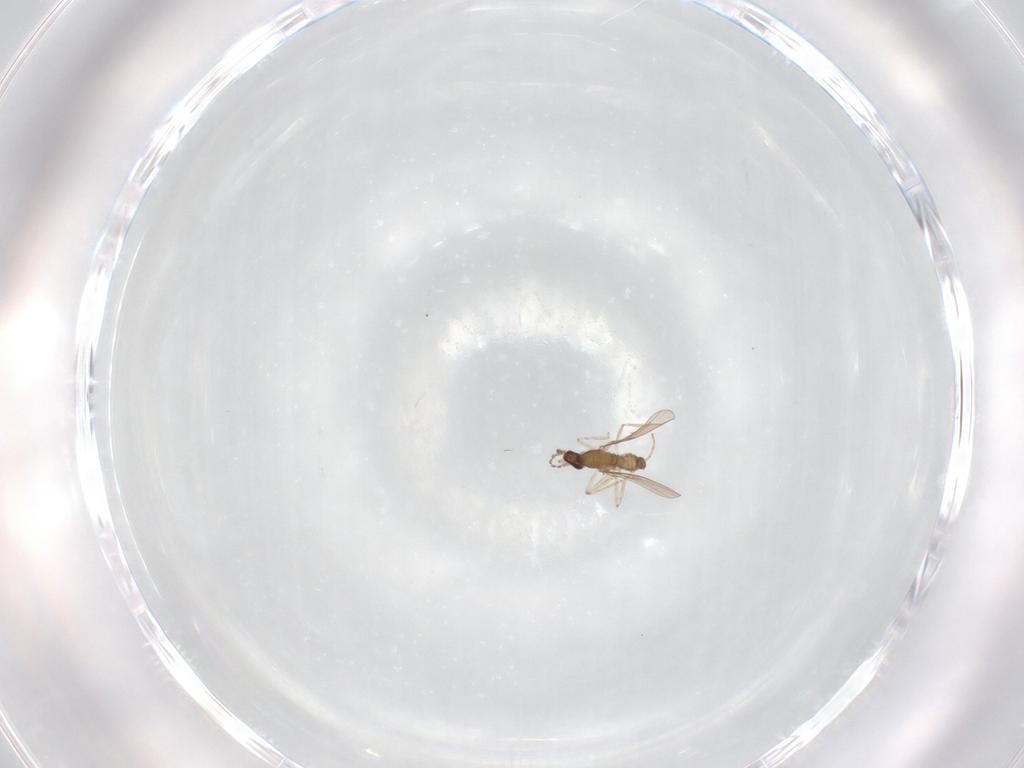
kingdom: Animalia
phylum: Arthropoda
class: Insecta
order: Diptera
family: Cecidomyiidae
